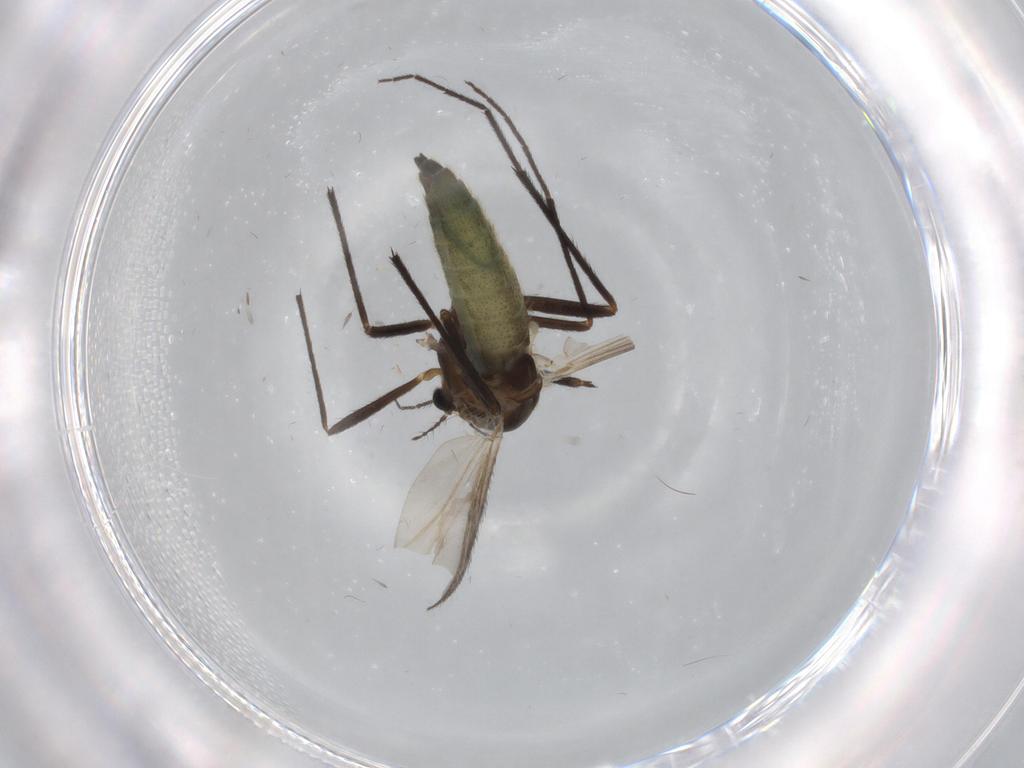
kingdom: Animalia
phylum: Arthropoda
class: Insecta
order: Diptera
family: Chironomidae
